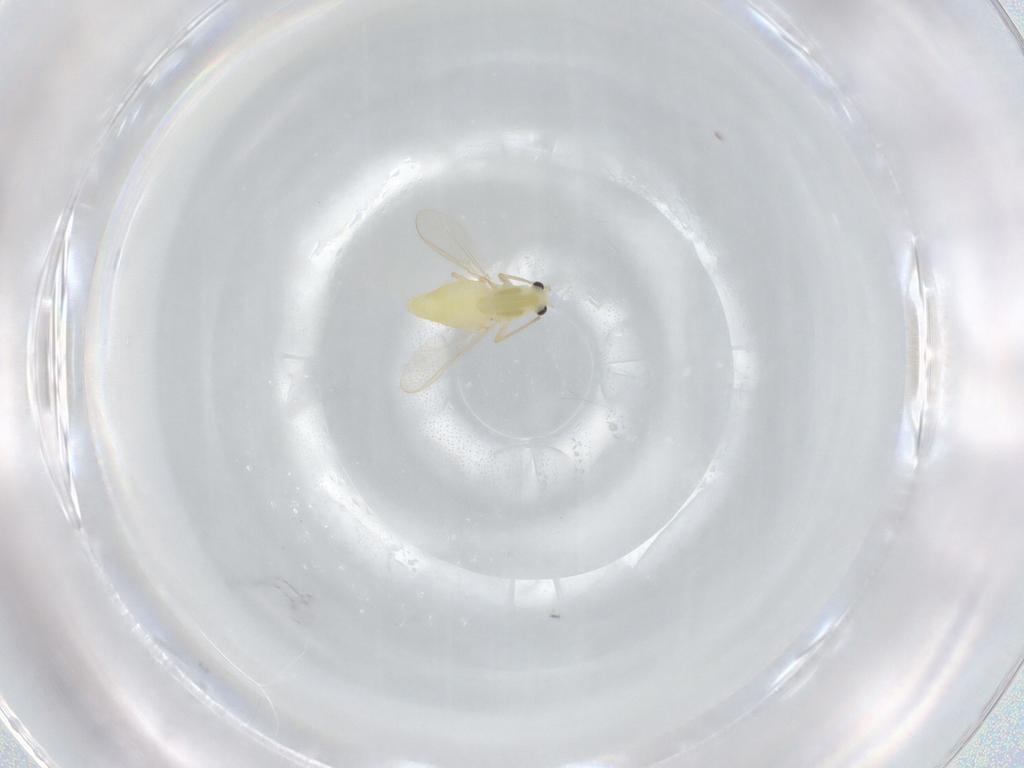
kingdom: Animalia
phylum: Arthropoda
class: Insecta
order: Diptera
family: Chironomidae
